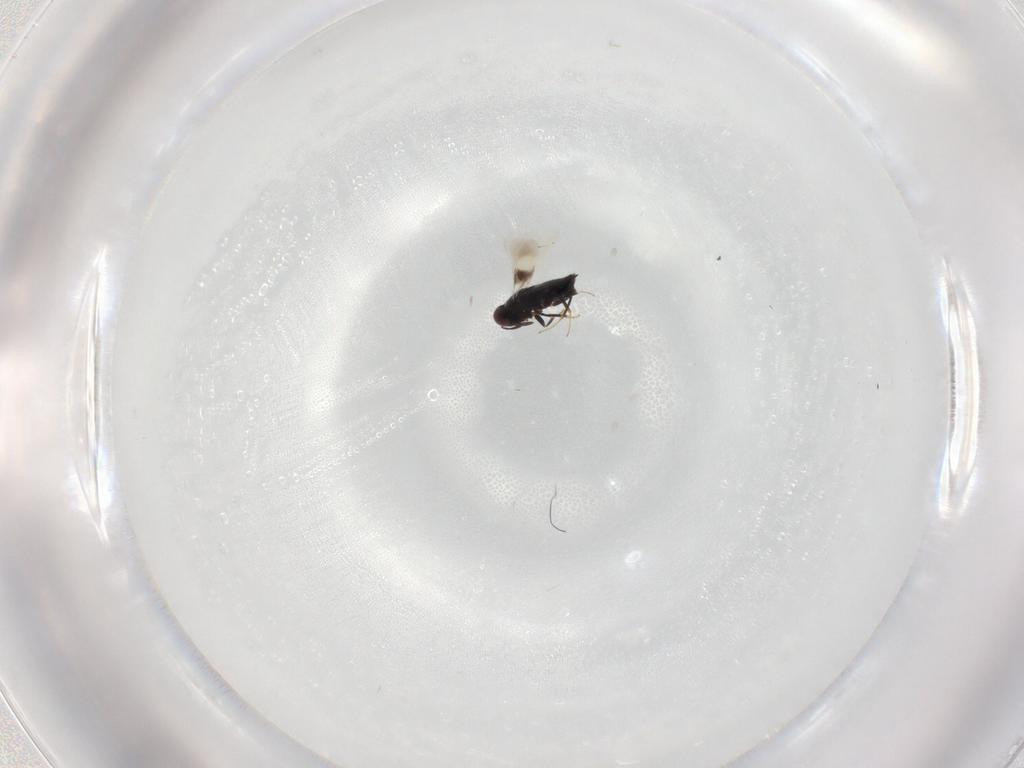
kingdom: Animalia
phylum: Arthropoda
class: Insecta
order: Hymenoptera
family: Signiphoridae
